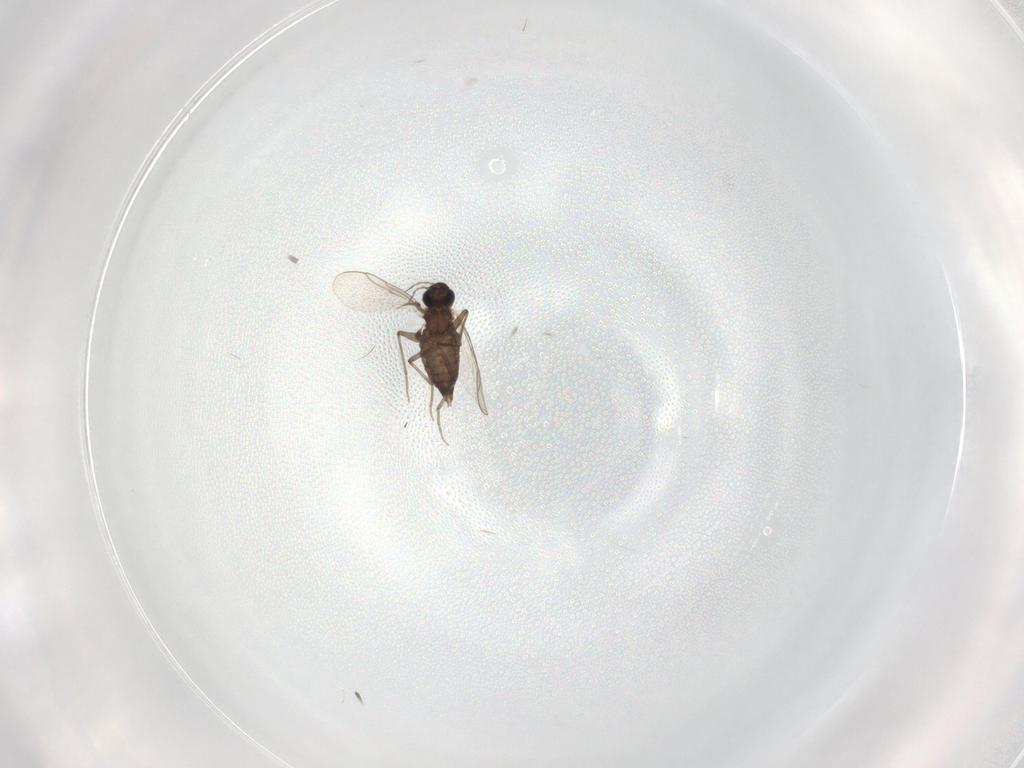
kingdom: Animalia
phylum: Arthropoda
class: Insecta
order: Diptera
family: Chironomidae
